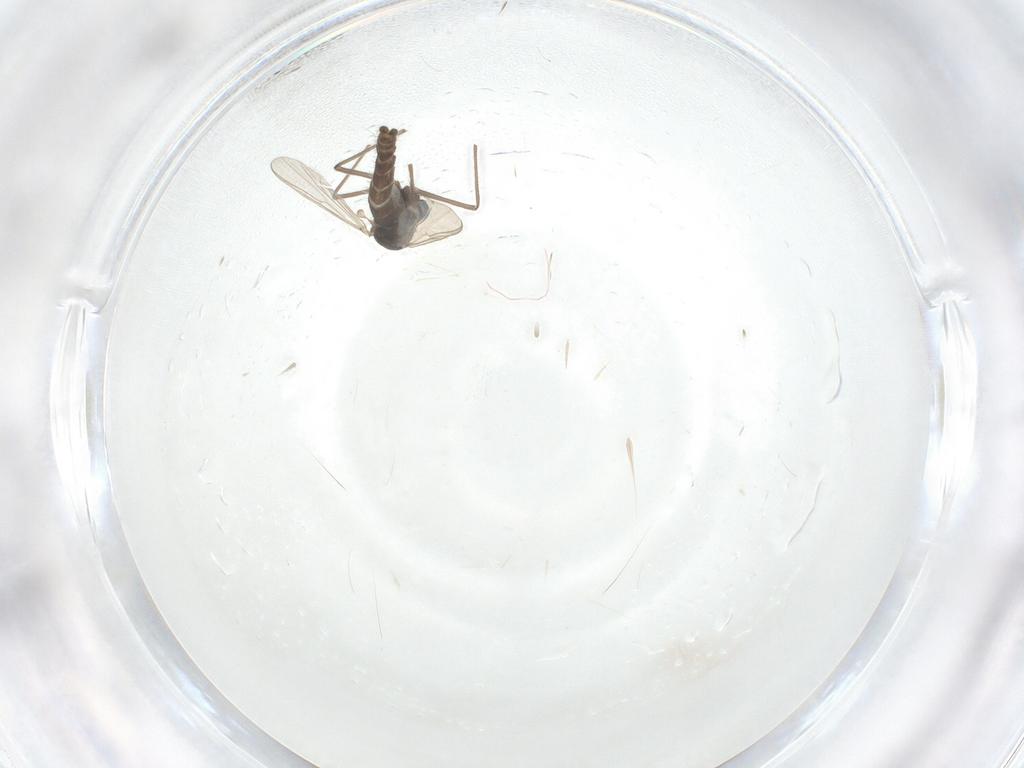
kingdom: Animalia
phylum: Arthropoda
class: Insecta
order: Diptera
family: Chironomidae
